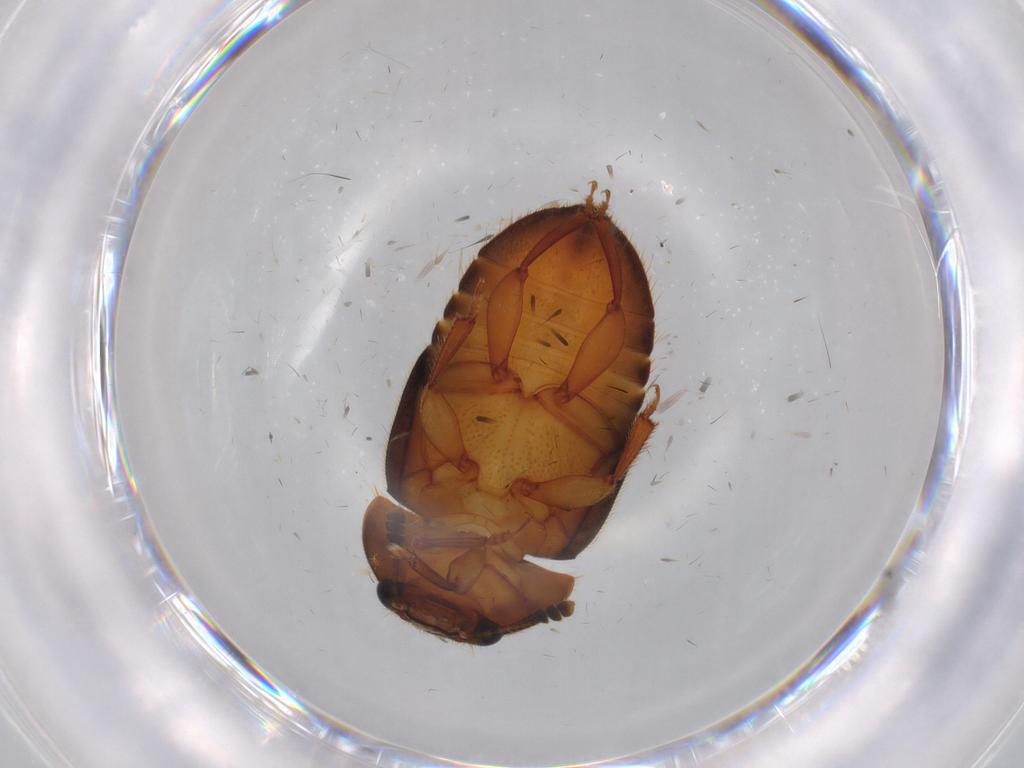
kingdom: Animalia
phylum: Arthropoda
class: Insecta
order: Coleoptera
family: Nitidulidae
